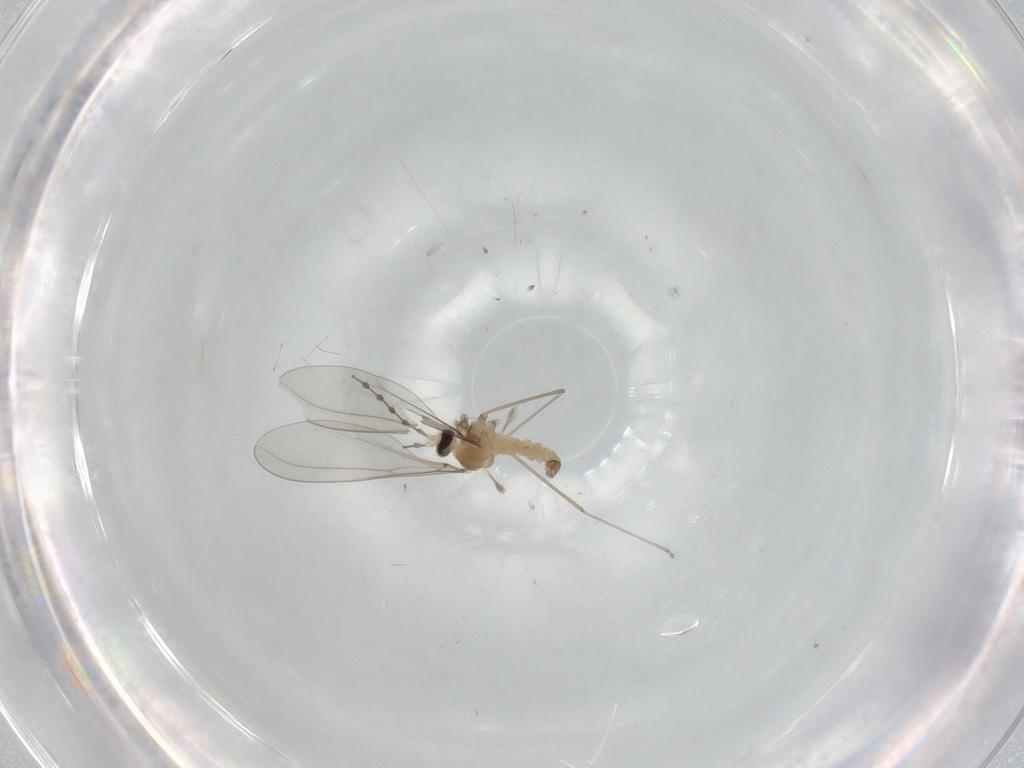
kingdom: Animalia
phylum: Arthropoda
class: Insecta
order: Diptera
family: Cecidomyiidae
